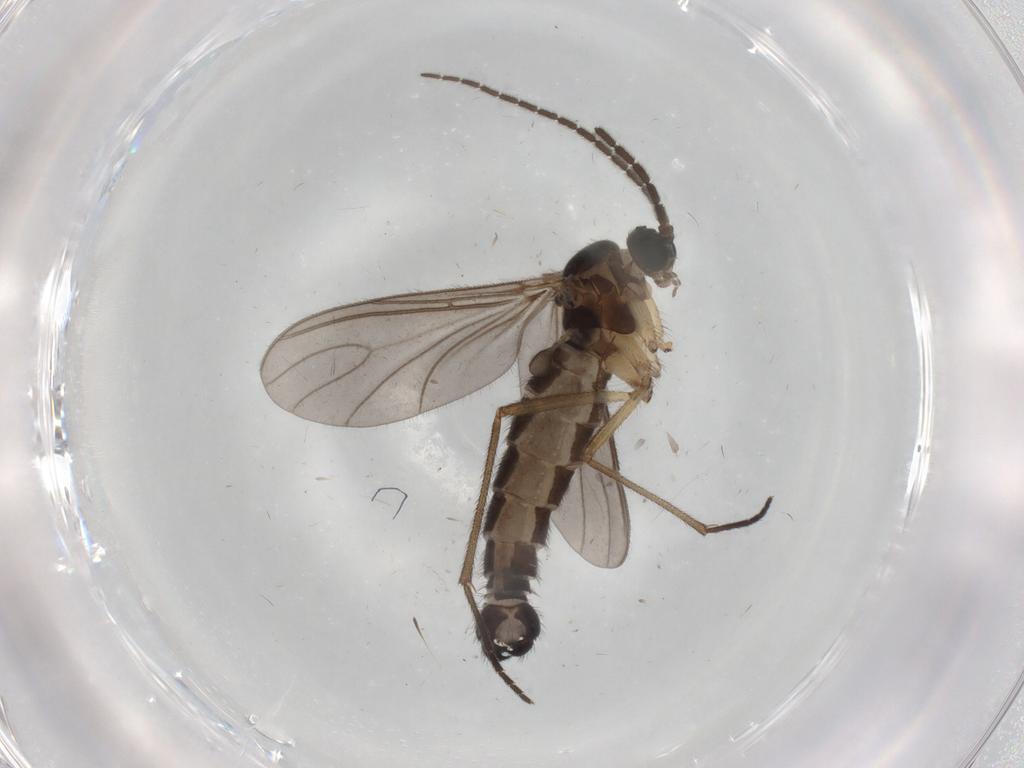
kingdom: Animalia
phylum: Arthropoda
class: Insecta
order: Diptera
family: Sciaridae
